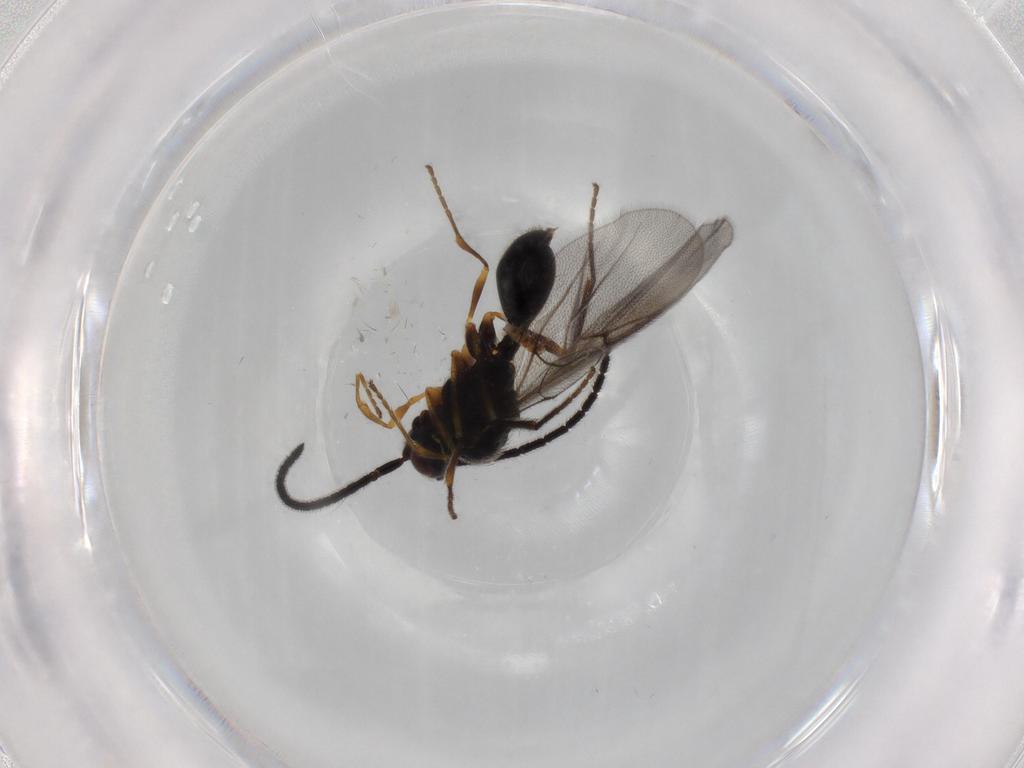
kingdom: Animalia
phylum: Arthropoda
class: Insecta
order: Hymenoptera
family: Diapriidae
